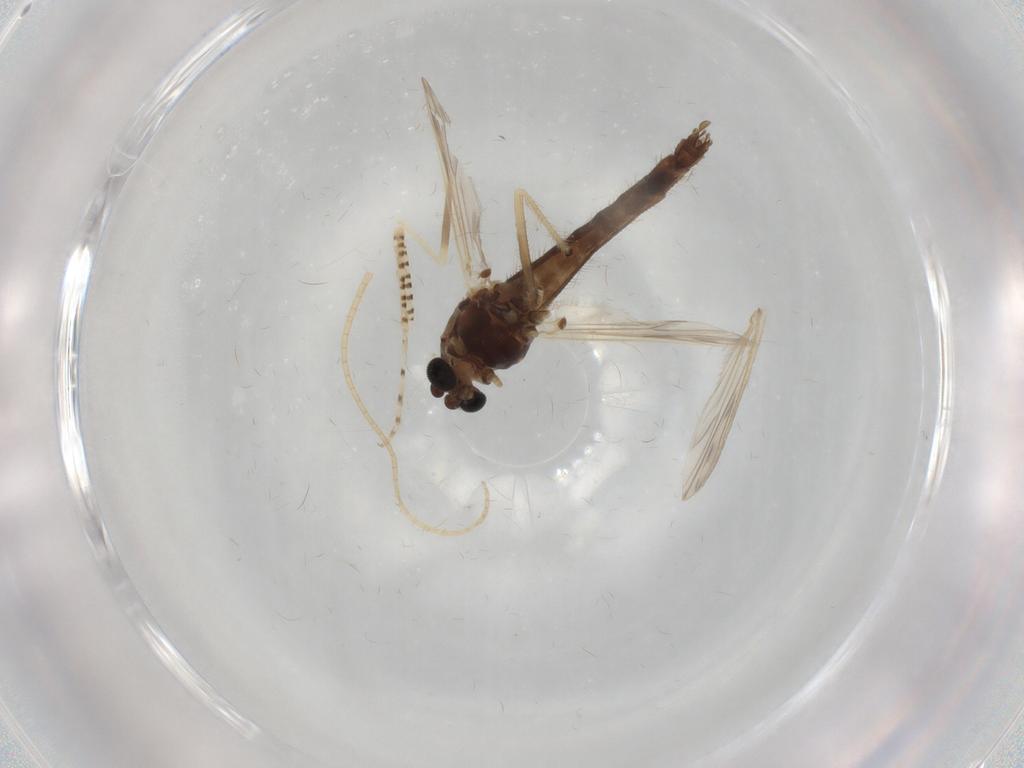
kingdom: Animalia
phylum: Arthropoda
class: Insecta
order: Diptera
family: Chironomidae
